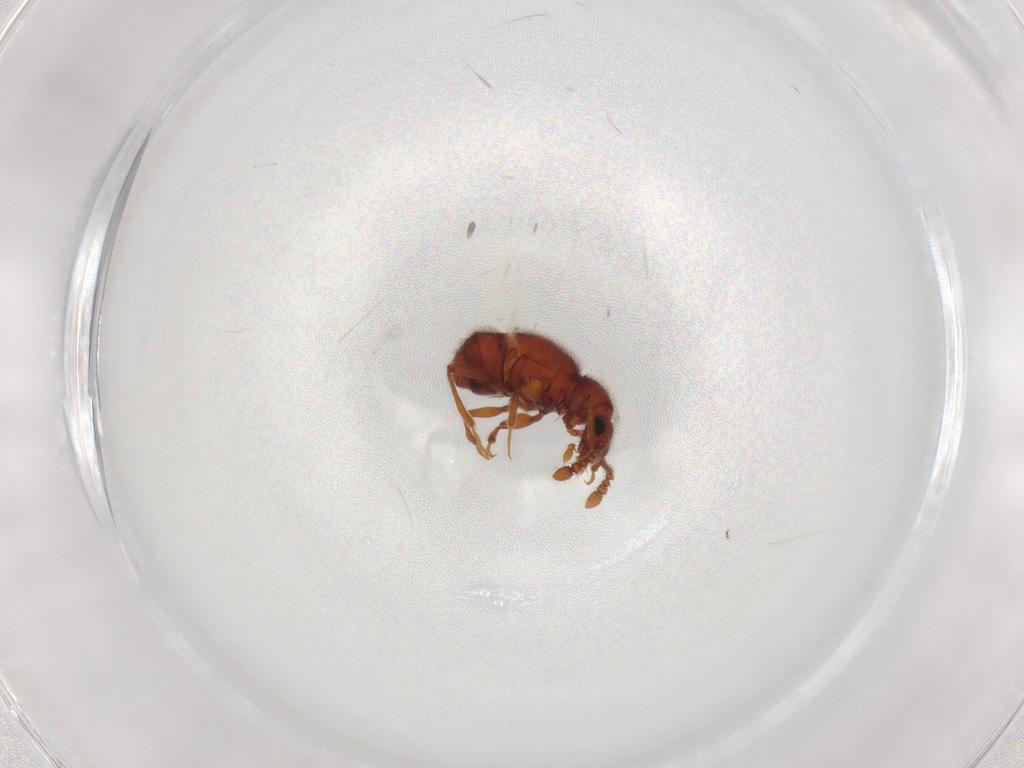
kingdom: Animalia
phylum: Arthropoda
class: Insecta
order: Coleoptera
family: Staphylinidae
